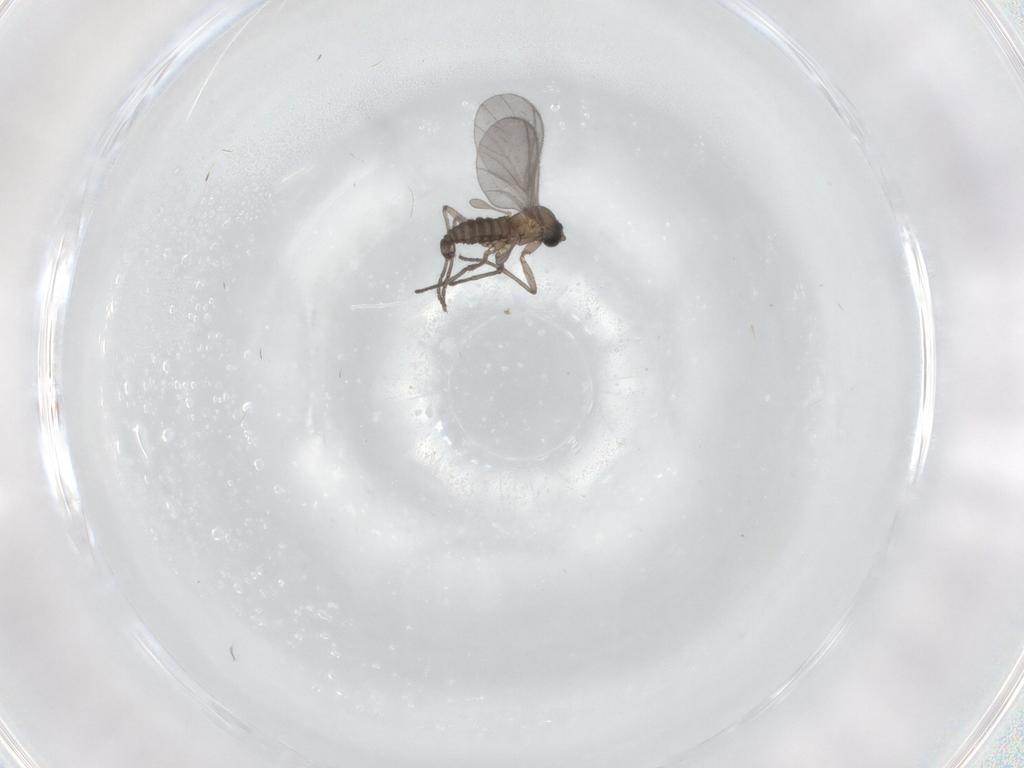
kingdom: Animalia
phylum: Arthropoda
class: Insecta
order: Diptera
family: Sciaridae
